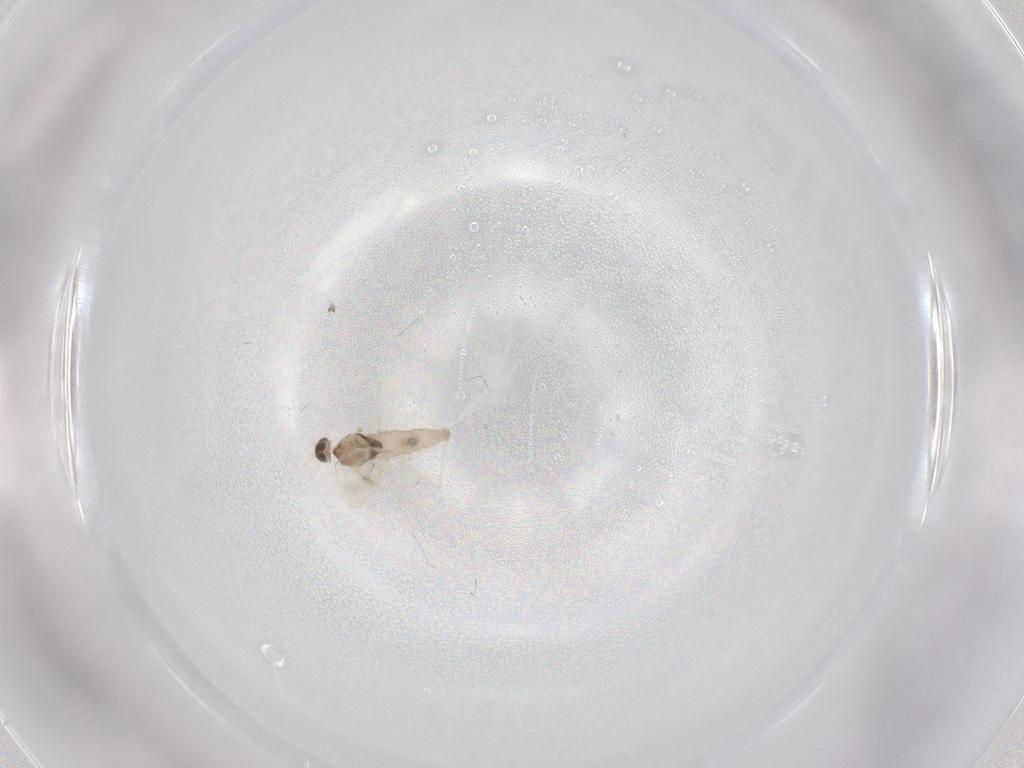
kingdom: Animalia
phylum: Arthropoda
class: Insecta
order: Diptera
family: Cecidomyiidae
